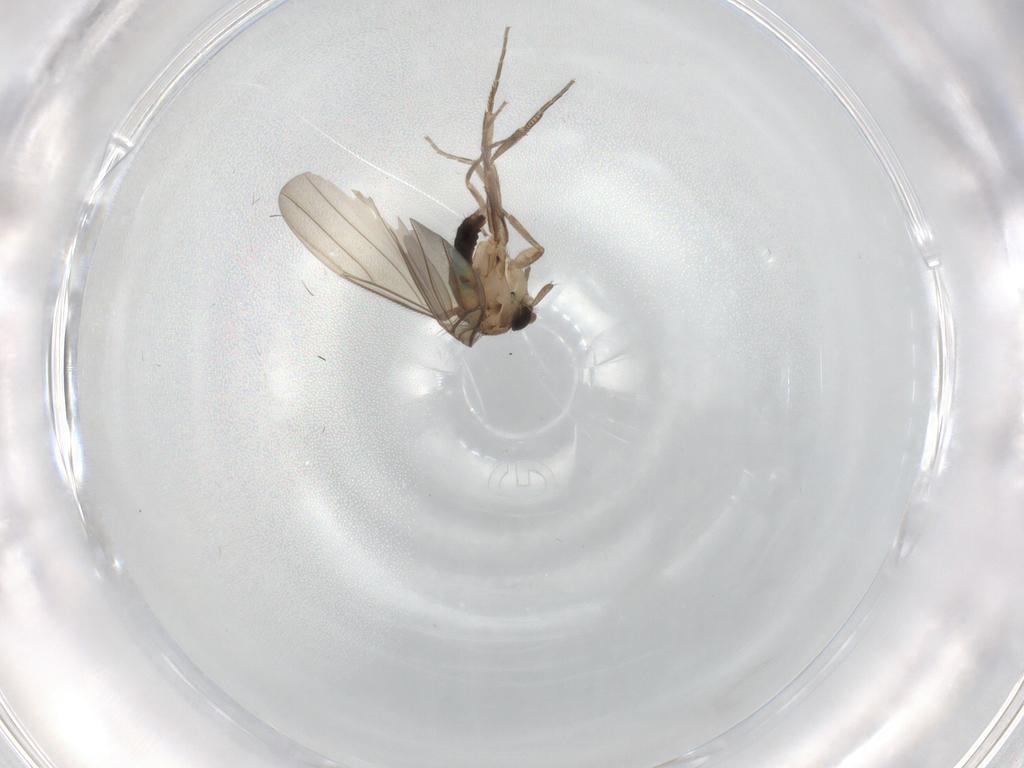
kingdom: Animalia
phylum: Arthropoda
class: Insecta
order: Diptera
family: Phoridae
